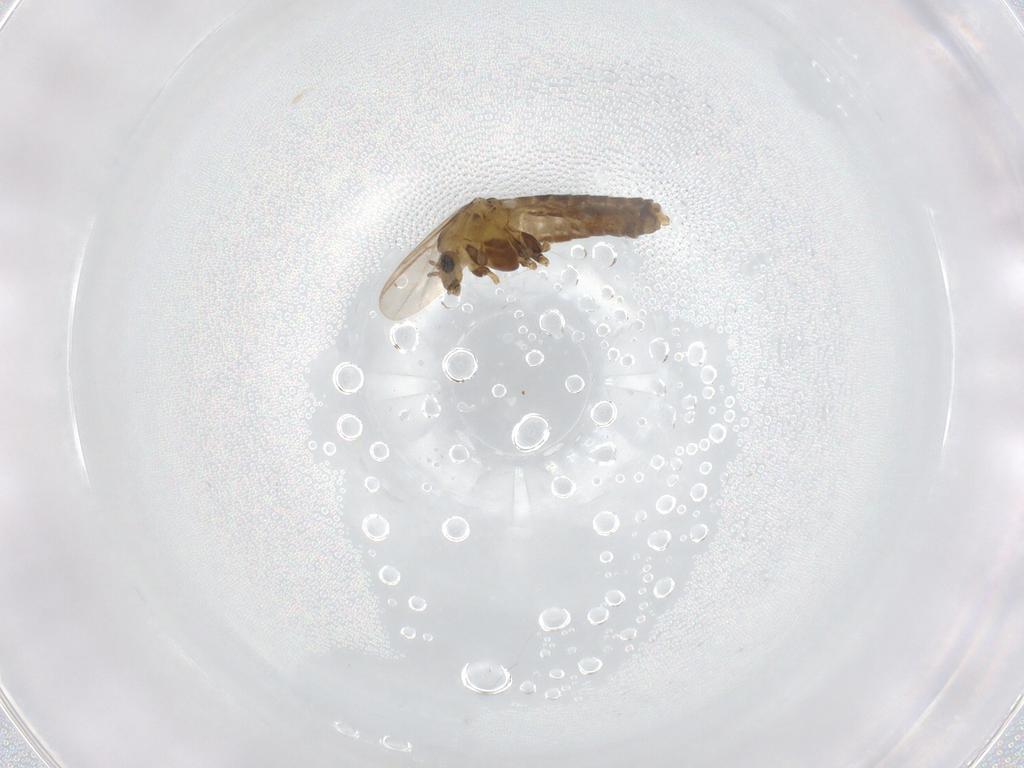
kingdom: Animalia
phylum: Arthropoda
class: Insecta
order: Diptera
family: Chironomidae
